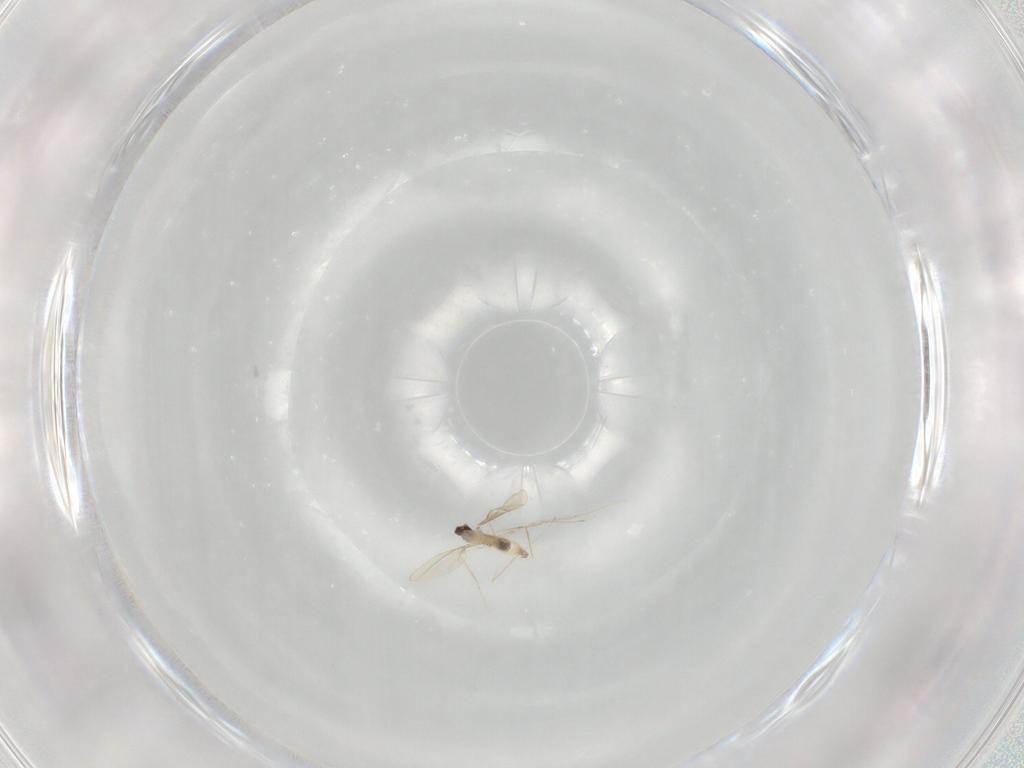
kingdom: Animalia
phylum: Arthropoda
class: Insecta
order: Diptera
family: Cecidomyiidae
